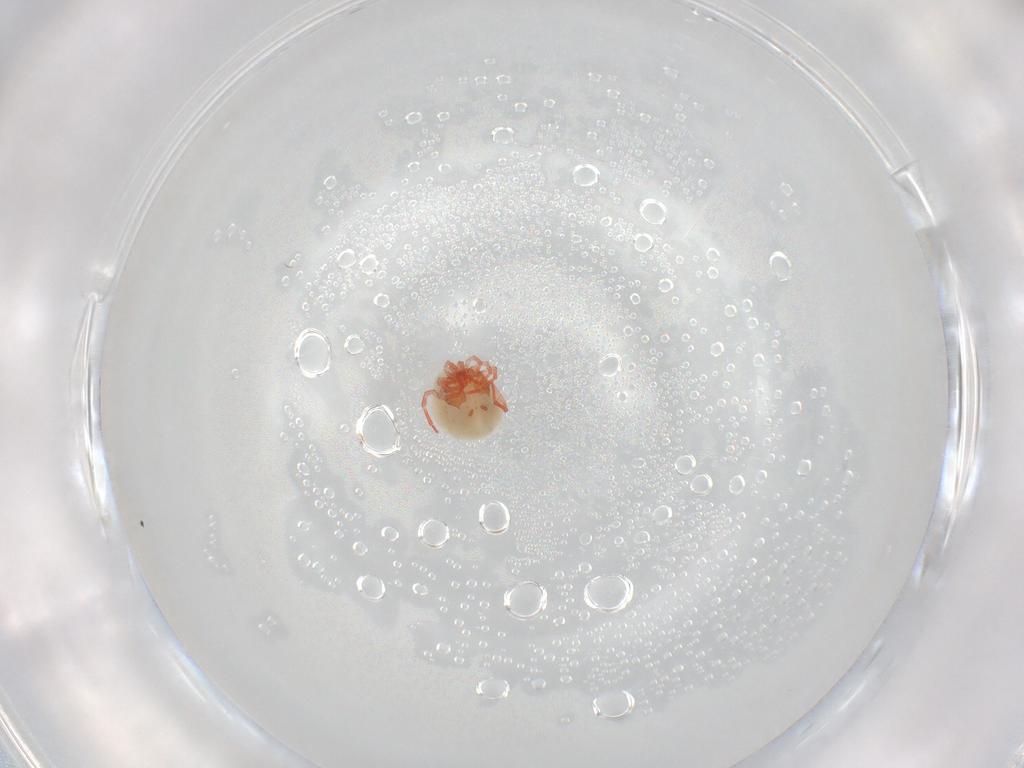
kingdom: Animalia
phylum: Arthropoda
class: Arachnida
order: Trombidiformes
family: Pionidae
